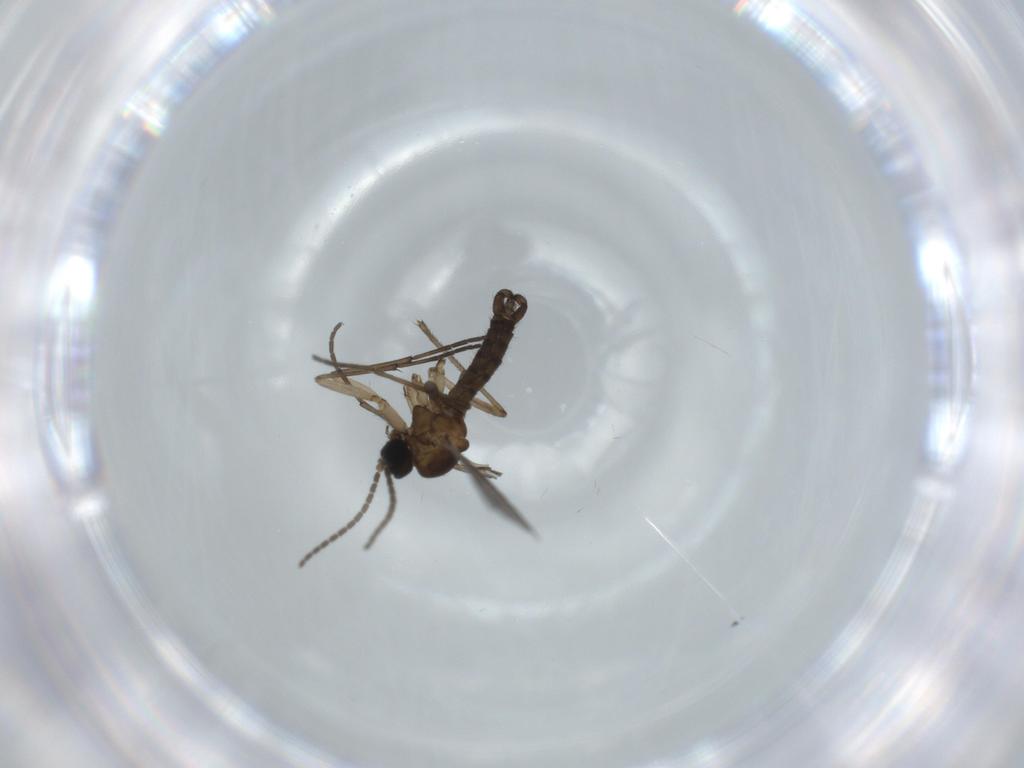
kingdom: Animalia
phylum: Arthropoda
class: Insecta
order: Diptera
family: Sciaridae
